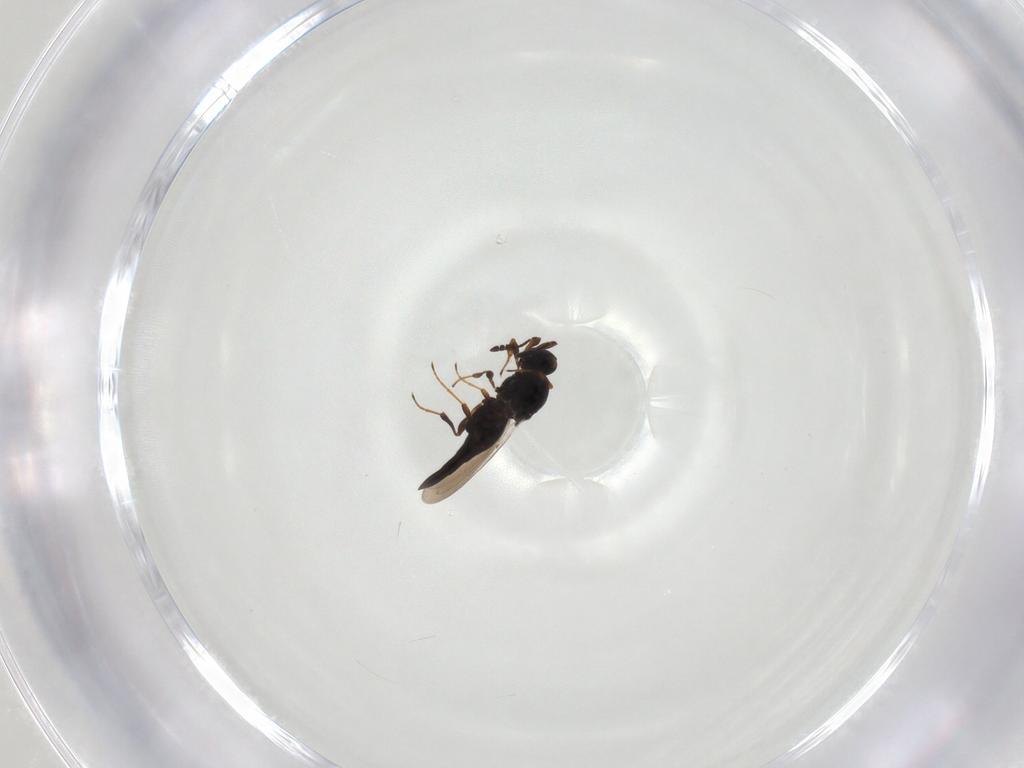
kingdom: Animalia
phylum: Arthropoda
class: Insecta
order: Hymenoptera
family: Platygastridae
